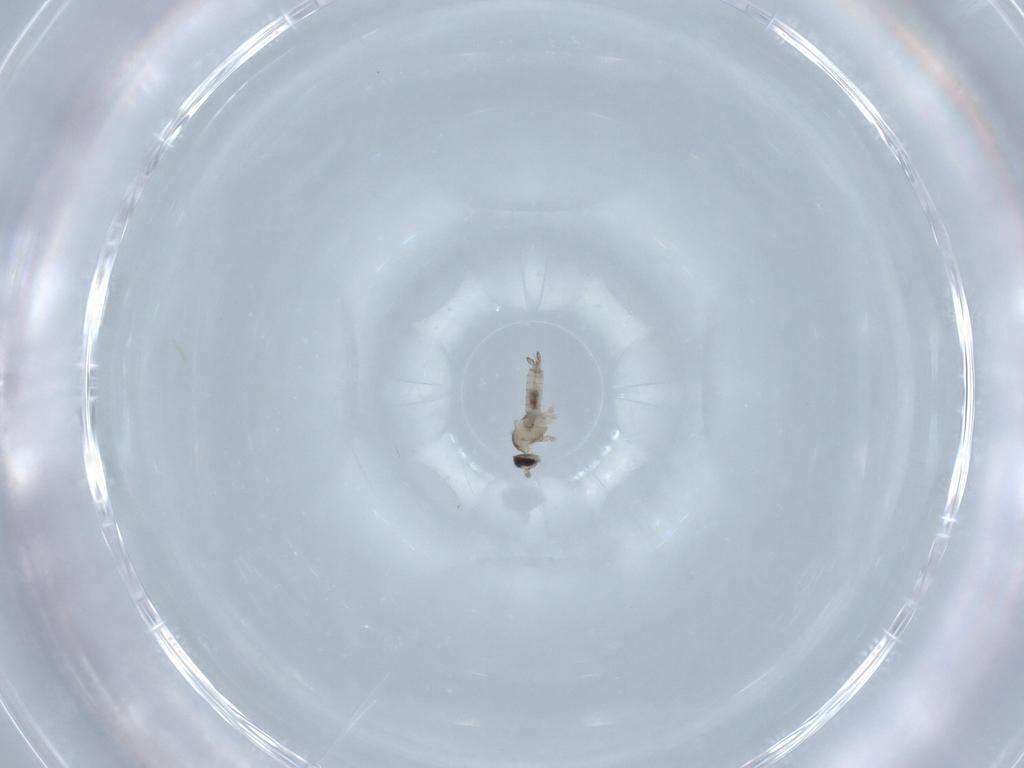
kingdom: Animalia
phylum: Arthropoda
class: Insecta
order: Diptera
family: Cecidomyiidae
